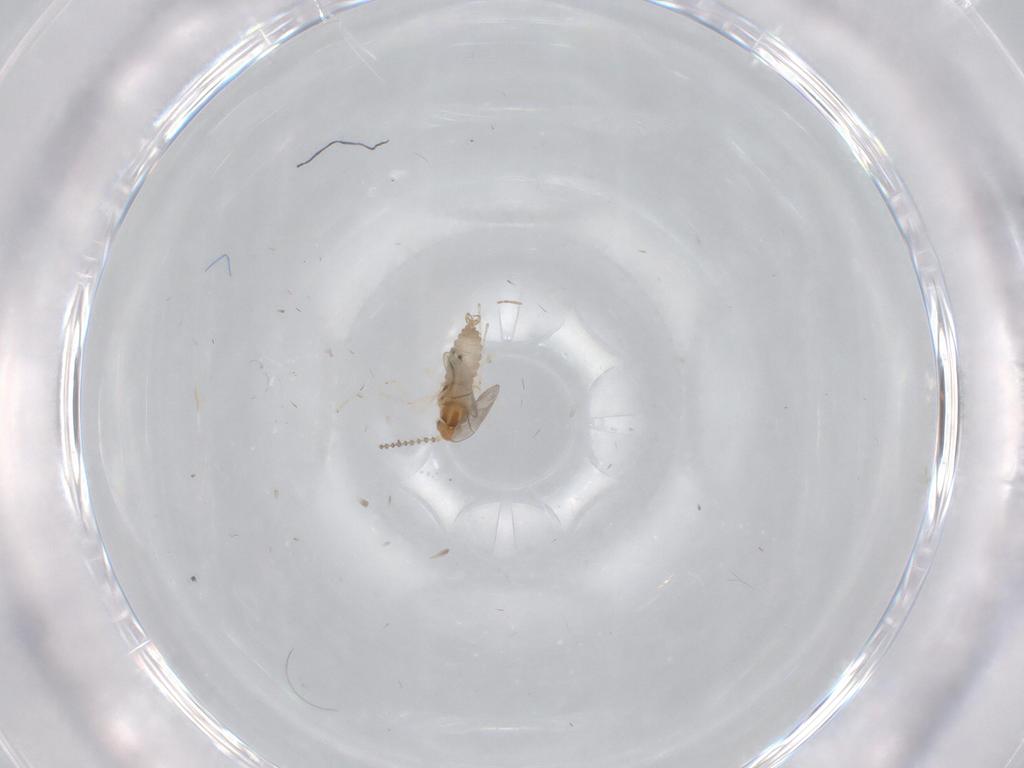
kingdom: Animalia
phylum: Arthropoda
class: Insecta
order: Diptera
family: Cecidomyiidae
